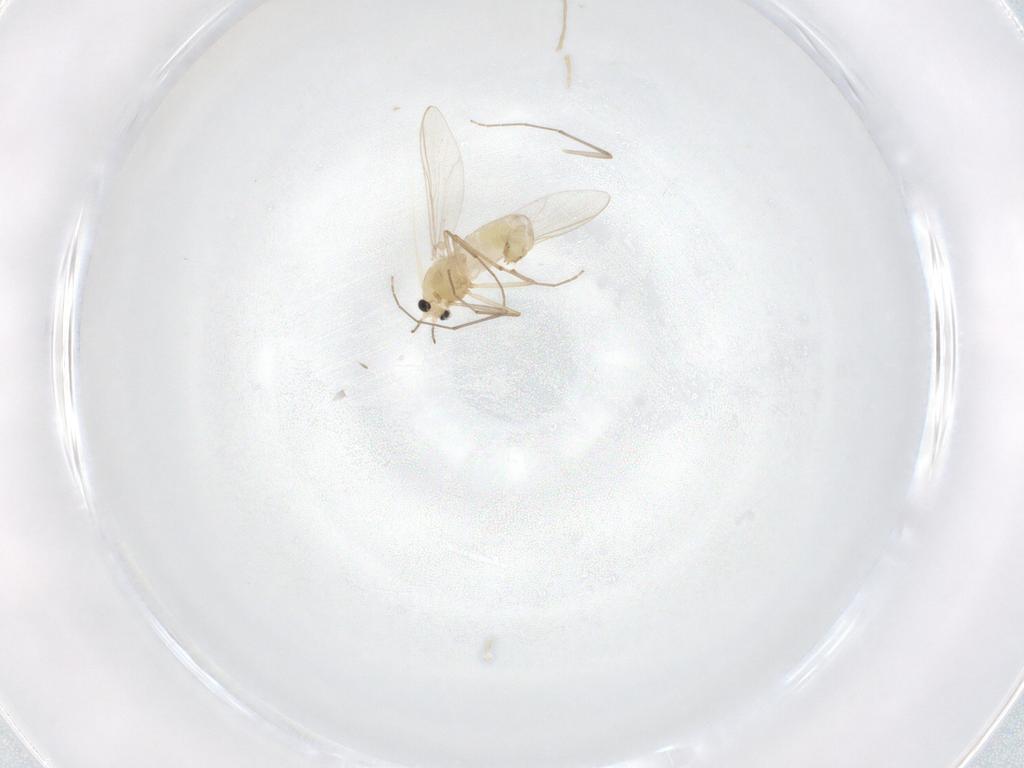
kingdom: Animalia
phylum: Arthropoda
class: Insecta
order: Diptera
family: Chironomidae
